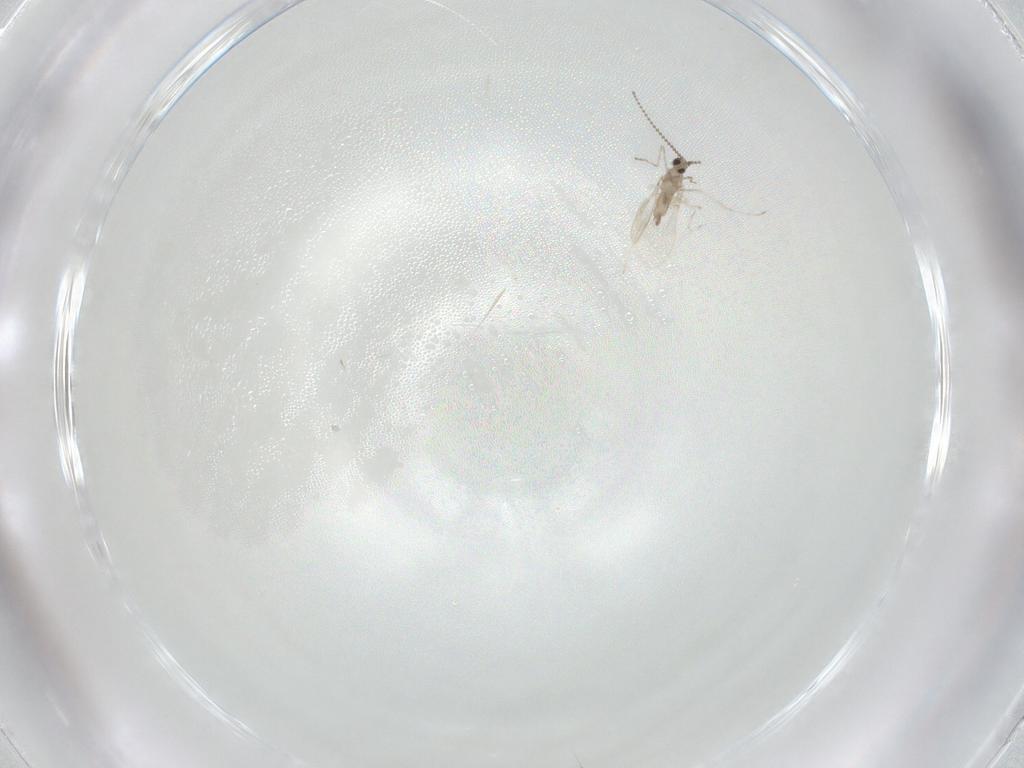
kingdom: Animalia
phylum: Arthropoda
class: Insecta
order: Diptera
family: Cecidomyiidae
